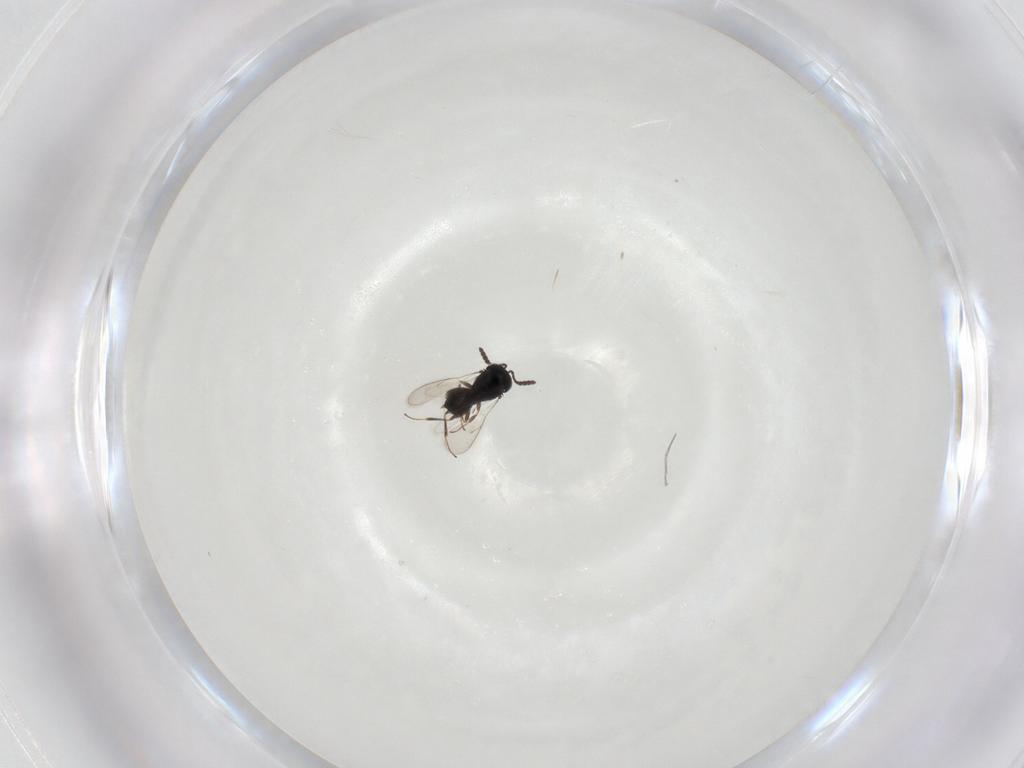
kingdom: Animalia
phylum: Arthropoda
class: Insecta
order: Hymenoptera
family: Scelionidae
